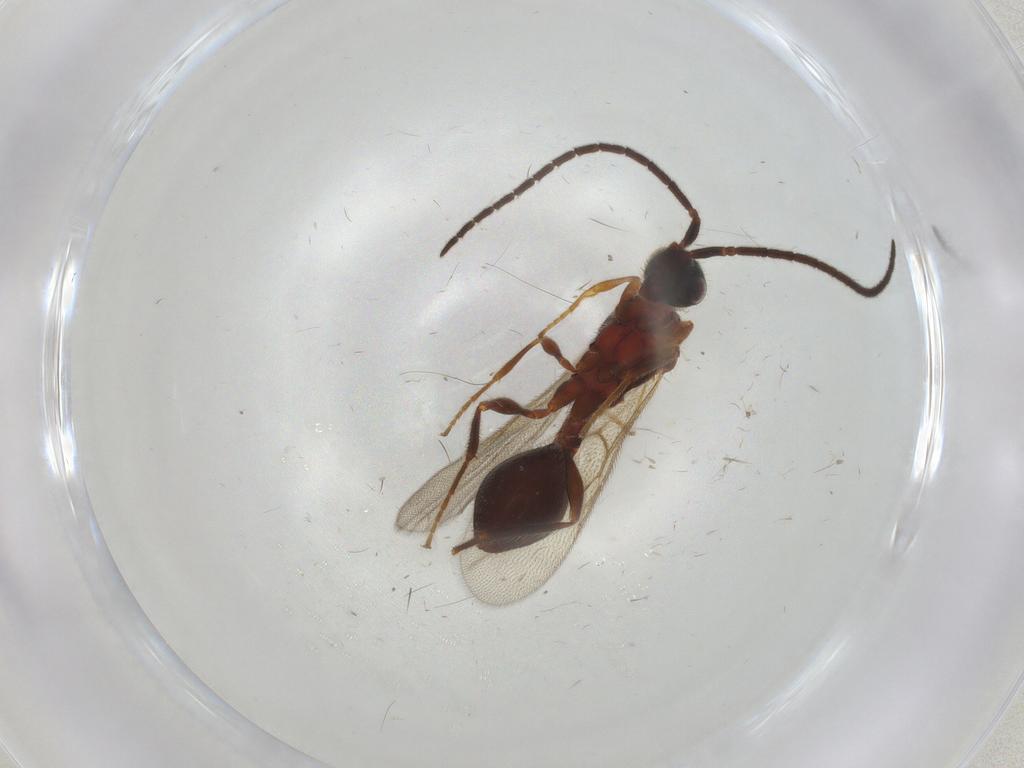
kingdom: Animalia
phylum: Arthropoda
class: Insecta
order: Hymenoptera
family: Diapriidae
